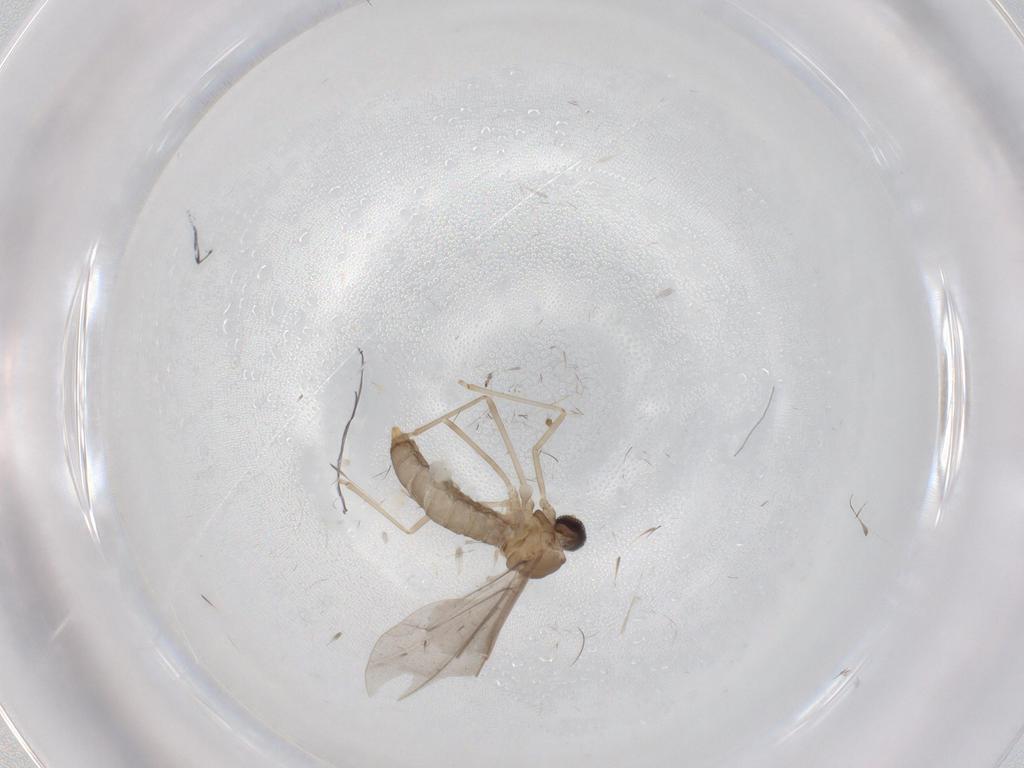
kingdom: Animalia
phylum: Arthropoda
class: Insecta
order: Diptera
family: Cecidomyiidae
